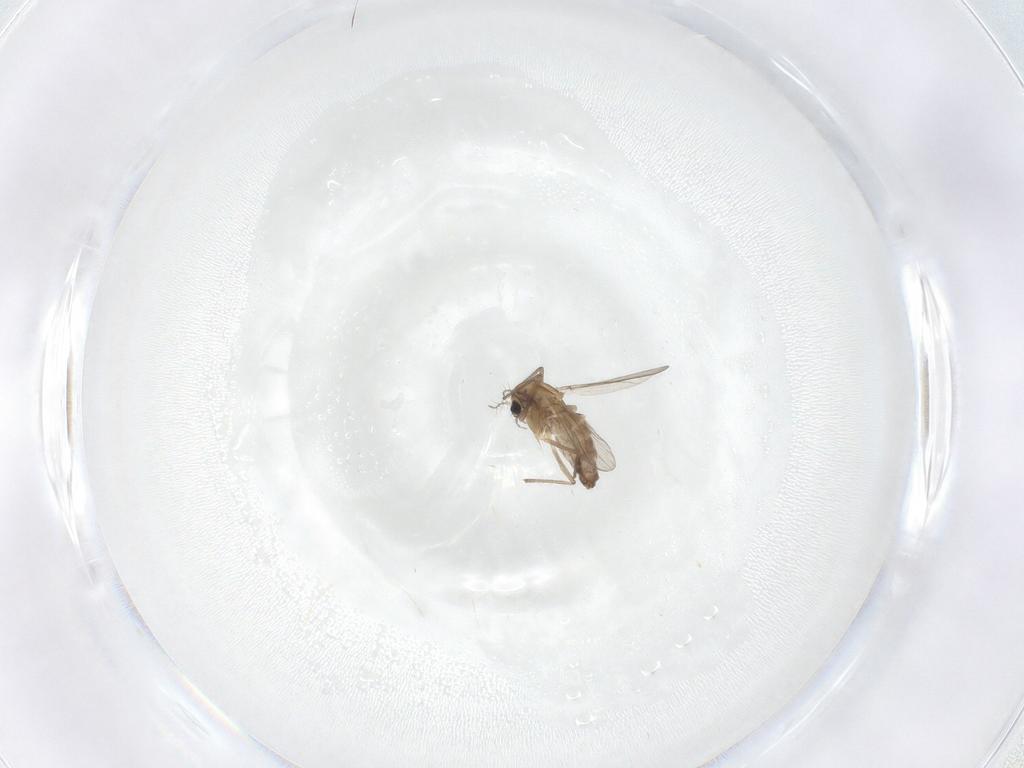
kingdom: Animalia
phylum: Arthropoda
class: Insecta
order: Diptera
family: Chironomidae
